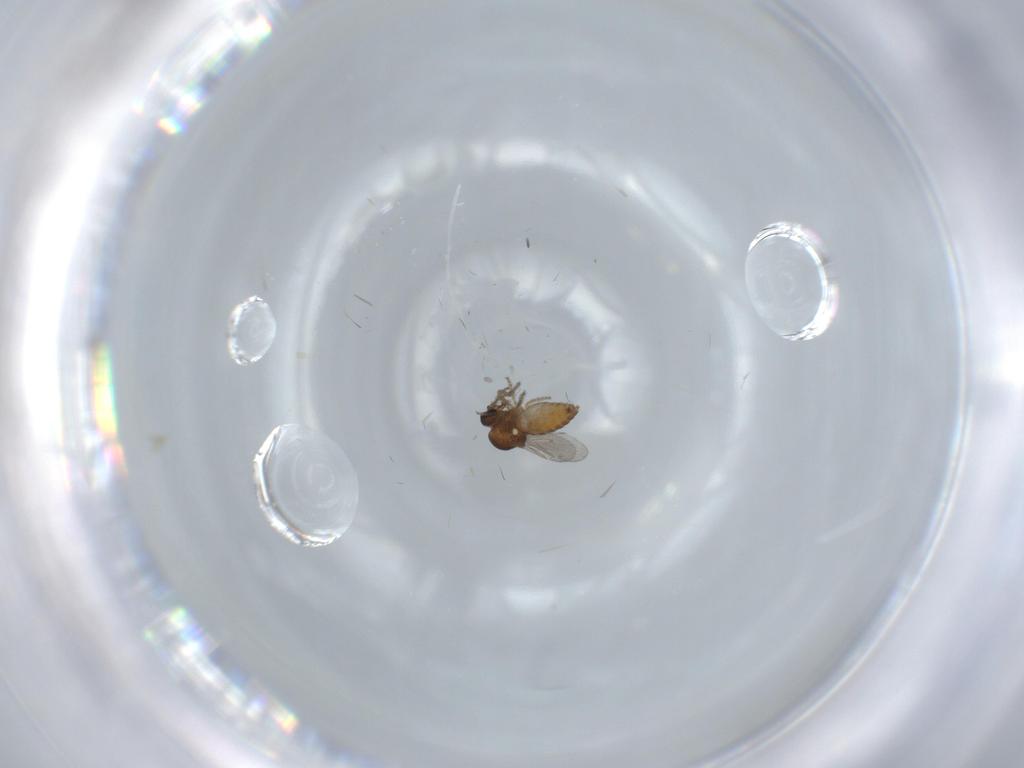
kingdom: Animalia
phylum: Arthropoda
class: Insecta
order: Diptera
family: Ceratopogonidae
